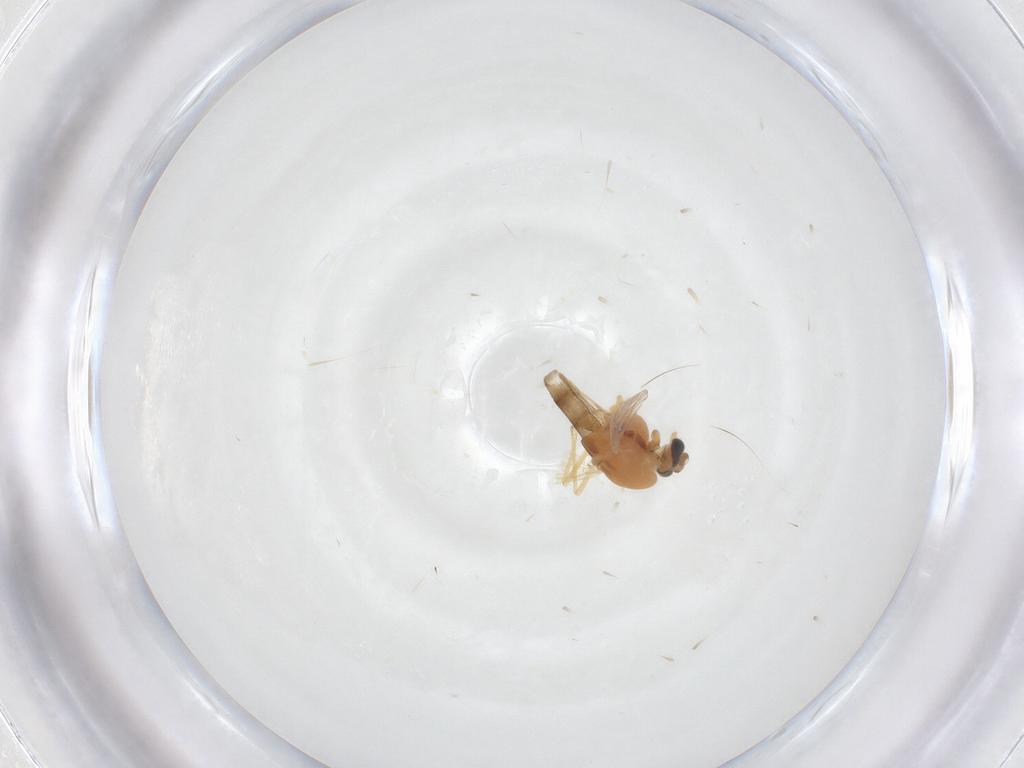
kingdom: Animalia
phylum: Arthropoda
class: Insecta
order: Diptera
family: Chironomidae
